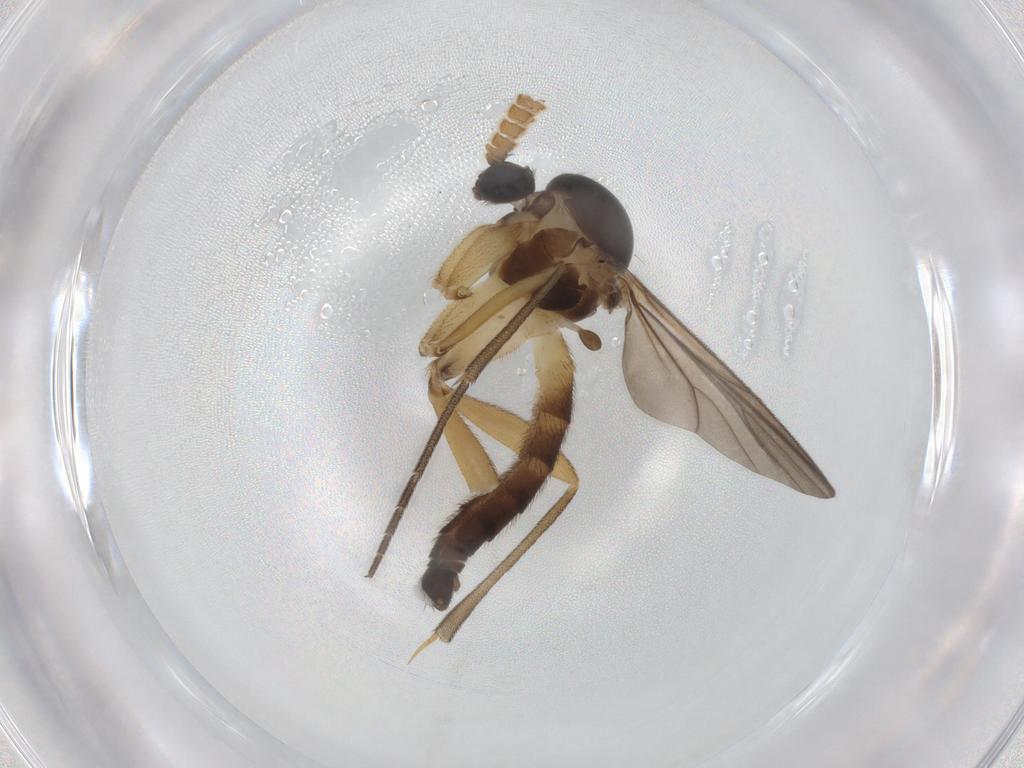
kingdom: Animalia
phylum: Arthropoda
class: Insecta
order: Diptera
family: Mycetophilidae
